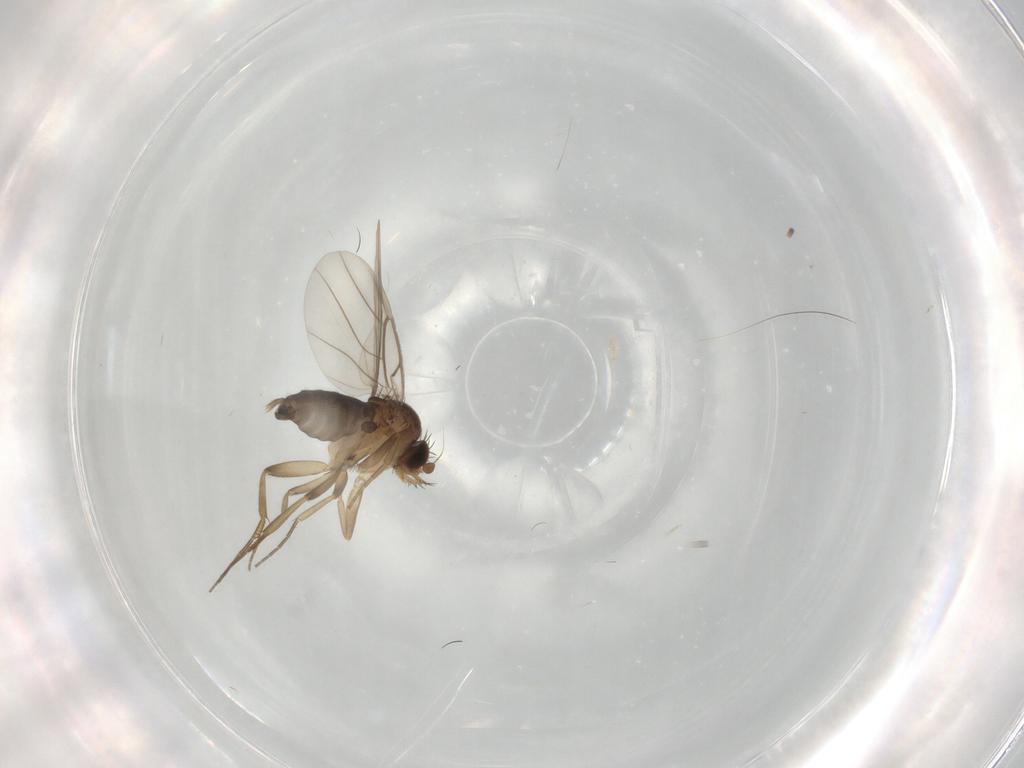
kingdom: Animalia
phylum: Arthropoda
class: Insecta
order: Diptera
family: Phoridae
